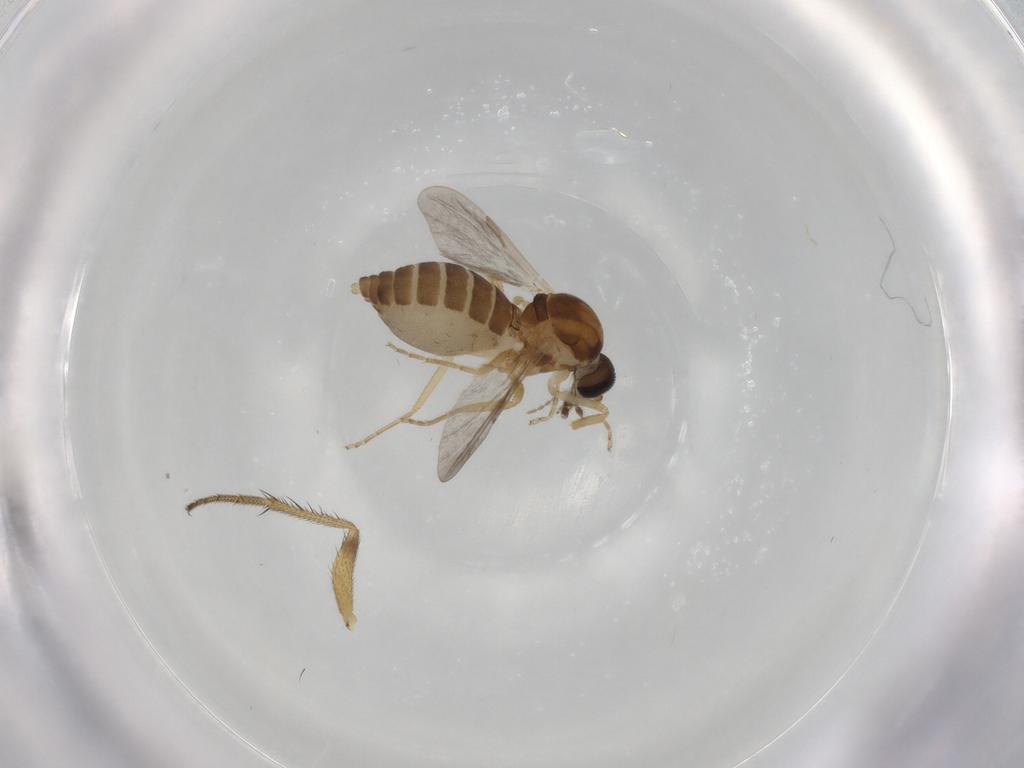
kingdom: Animalia
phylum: Arthropoda
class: Insecta
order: Diptera
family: Ceratopogonidae
